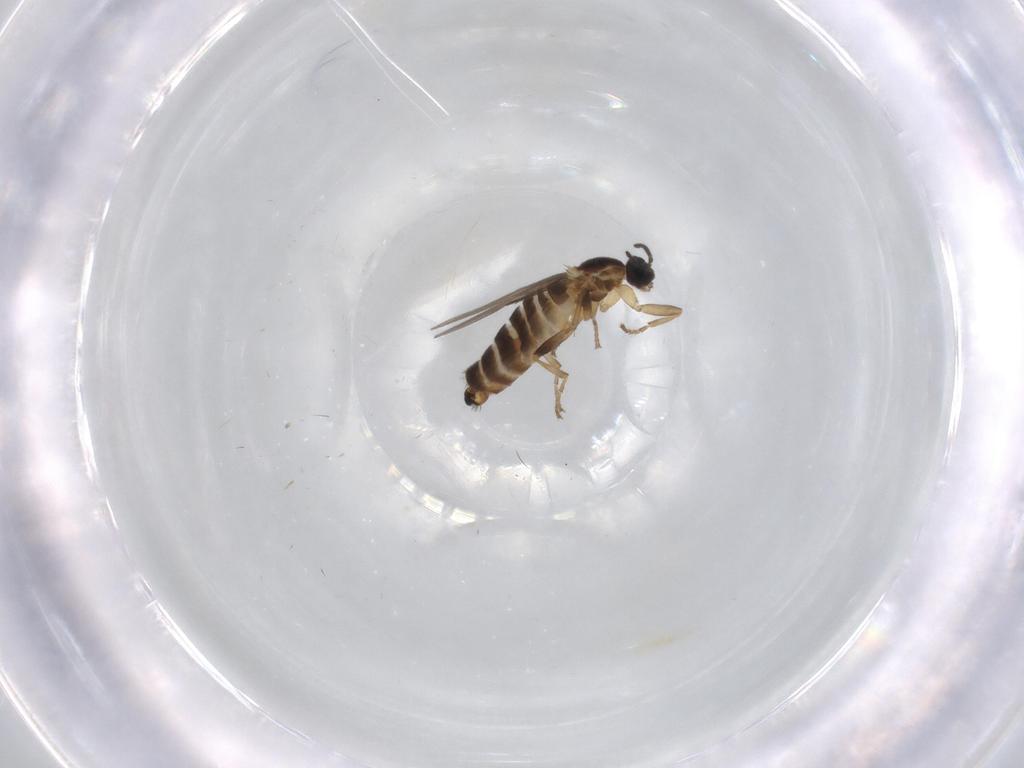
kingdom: Animalia
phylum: Arthropoda
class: Insecta
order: Diptera
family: Scatopsidae
